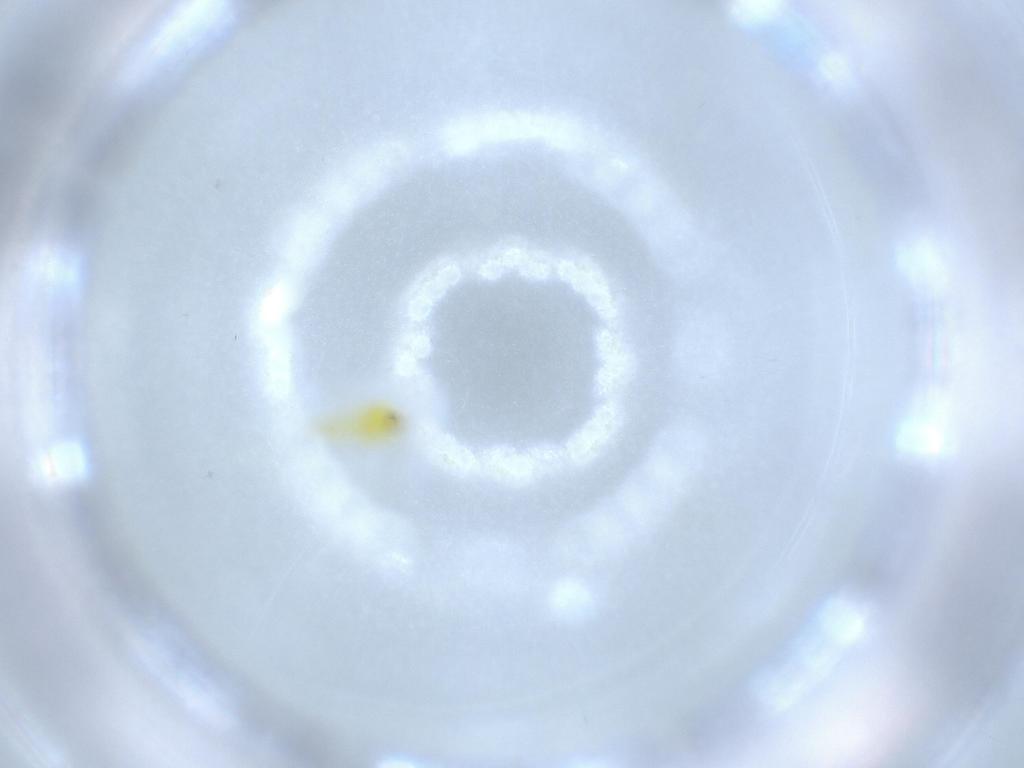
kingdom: Animalia
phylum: Arthropoda
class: Insecta
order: Hemiptera
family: Aleyrodidae
